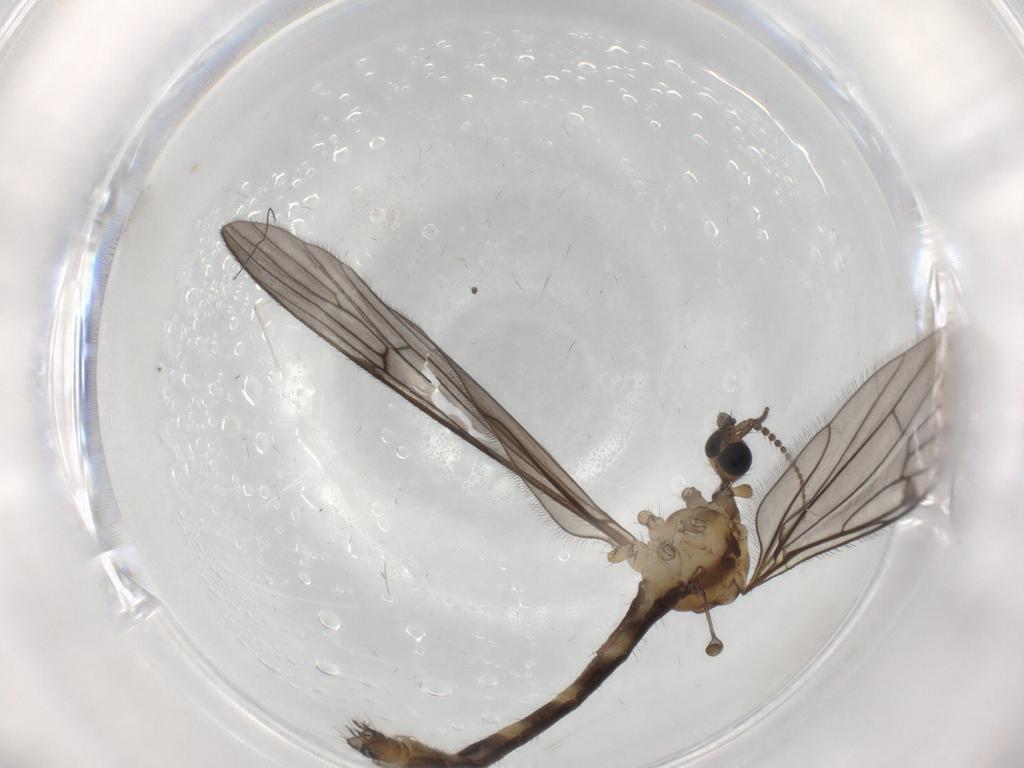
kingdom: Animalia
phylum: Arthropoda
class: Insecta
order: Diptera
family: Limoniidae
